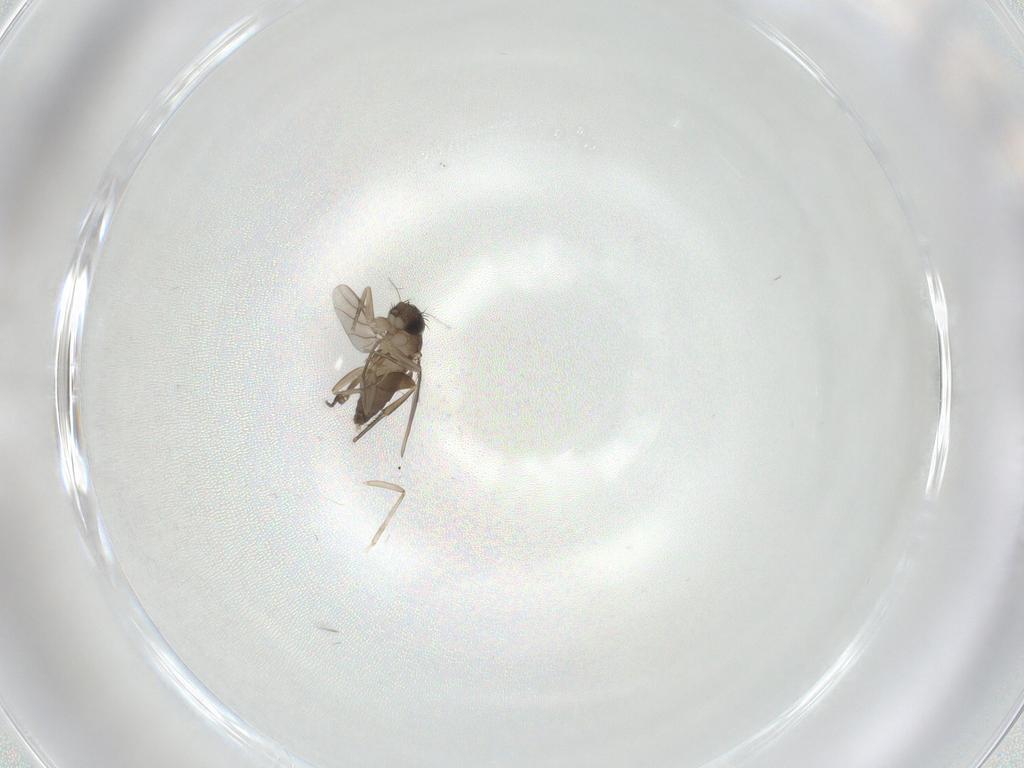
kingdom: Animalia
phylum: Arthropoda
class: Insecta
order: Diptera
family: Phoridae
